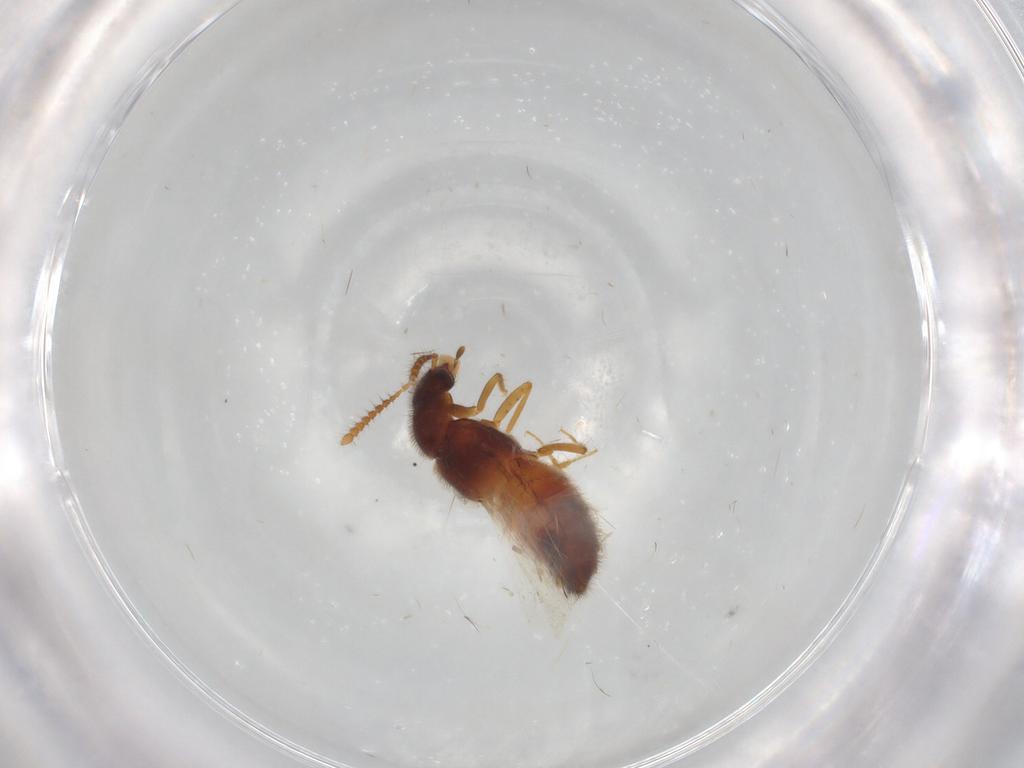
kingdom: Animalia
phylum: Arthropoda
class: Insecta
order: Coleoptera
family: Staphylinidae
